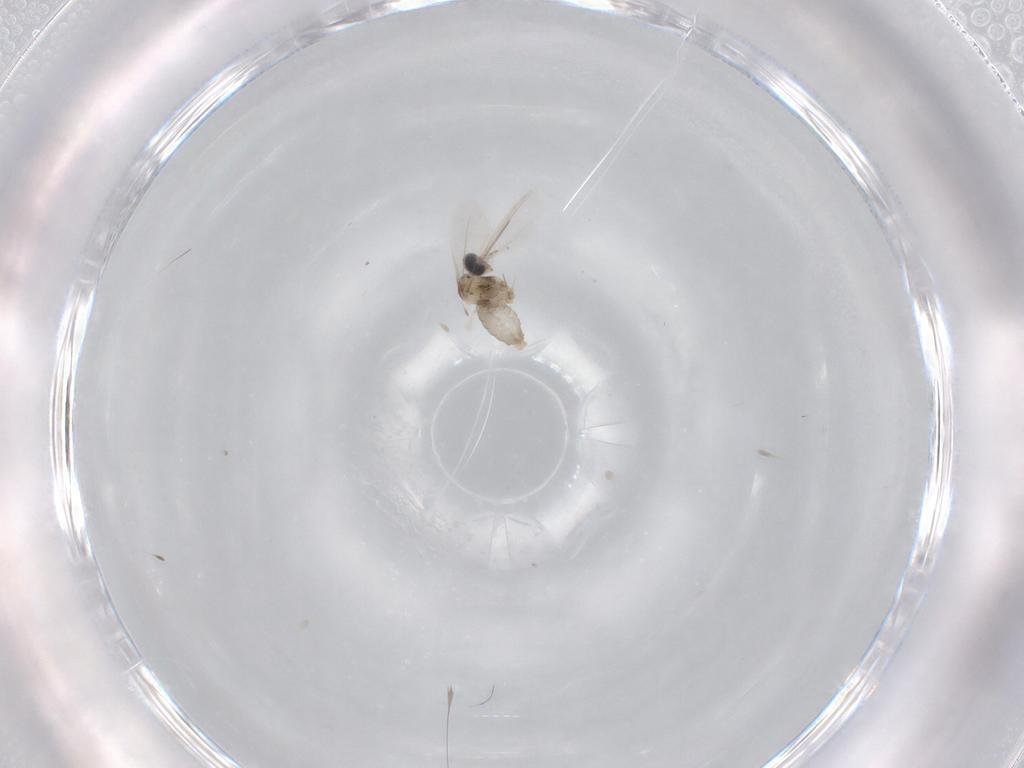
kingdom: Animalia
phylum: Arthropoda
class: Insecta
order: Diptera
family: Cecidomyiidae
